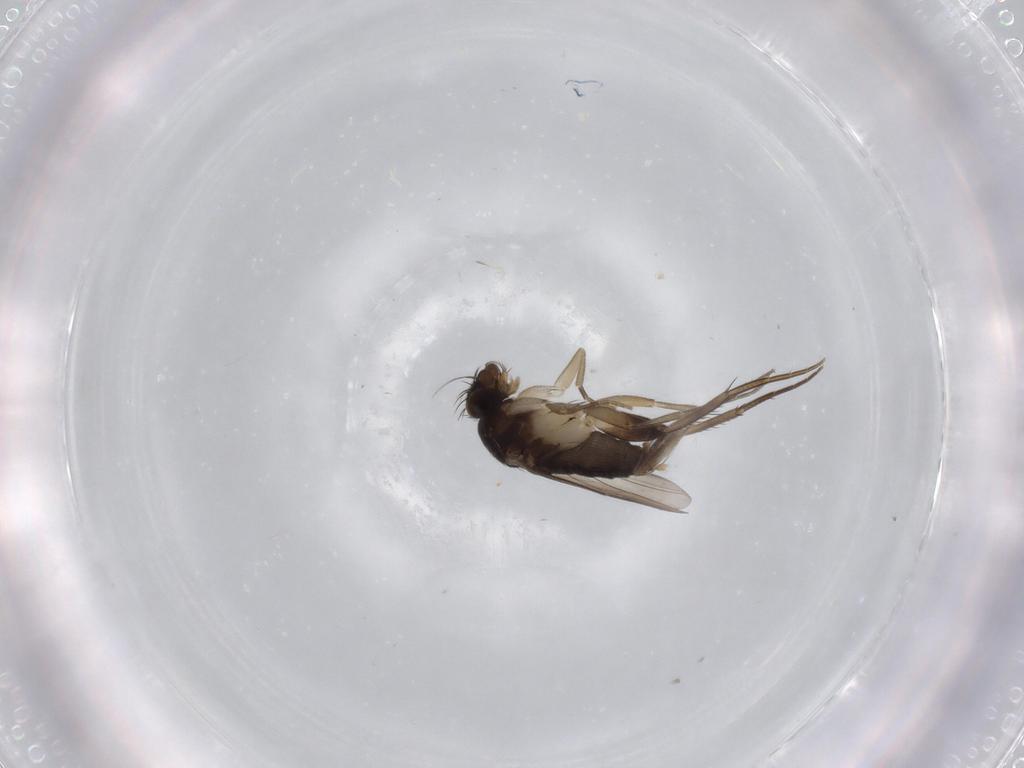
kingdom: Animalia
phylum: Arthropoda
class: Insecta
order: Diptera
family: Phoridae
